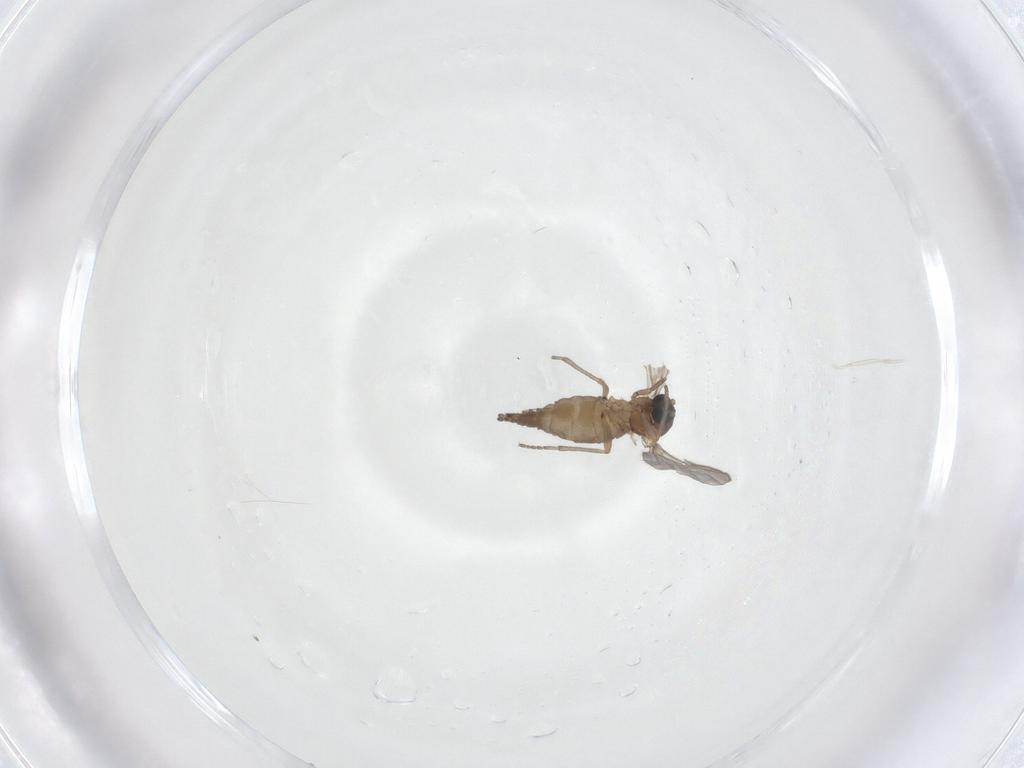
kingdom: Animalia
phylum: Arthropoda
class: Insecta
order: Diptera
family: Sciaridae
